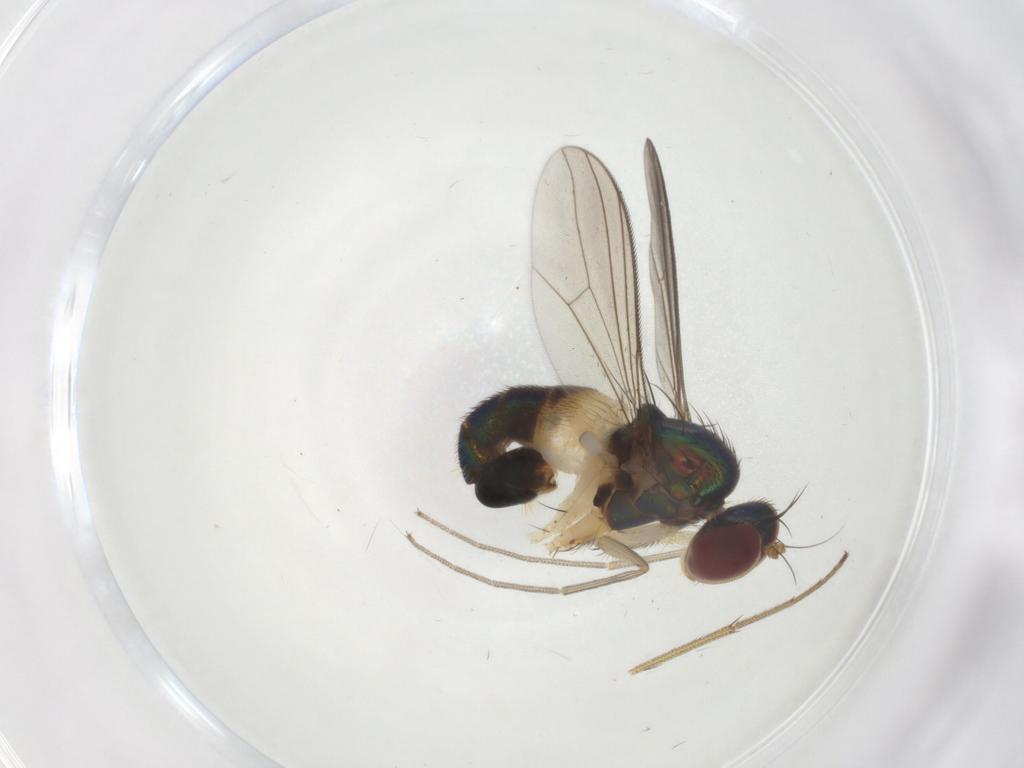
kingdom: Animalia
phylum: Arthropoda
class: Insecta
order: Diptera
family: Dolichopodidae
